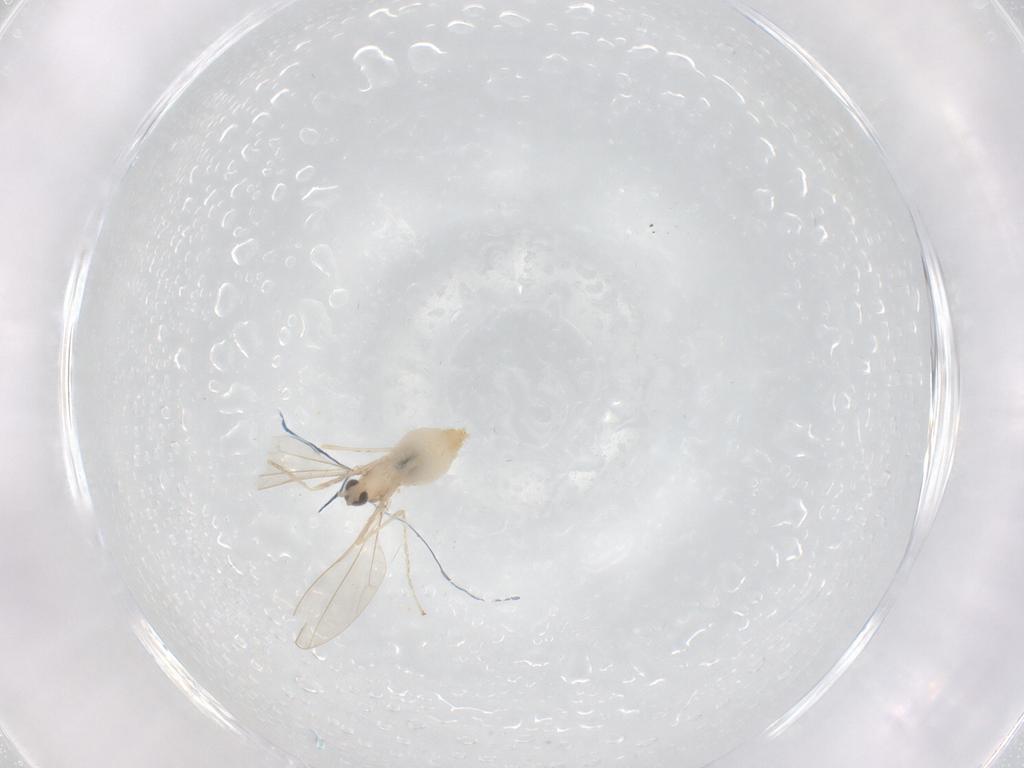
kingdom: Animalia
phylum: Arthropoda
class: Insecta
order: Diptera
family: Cecidomyiidae
